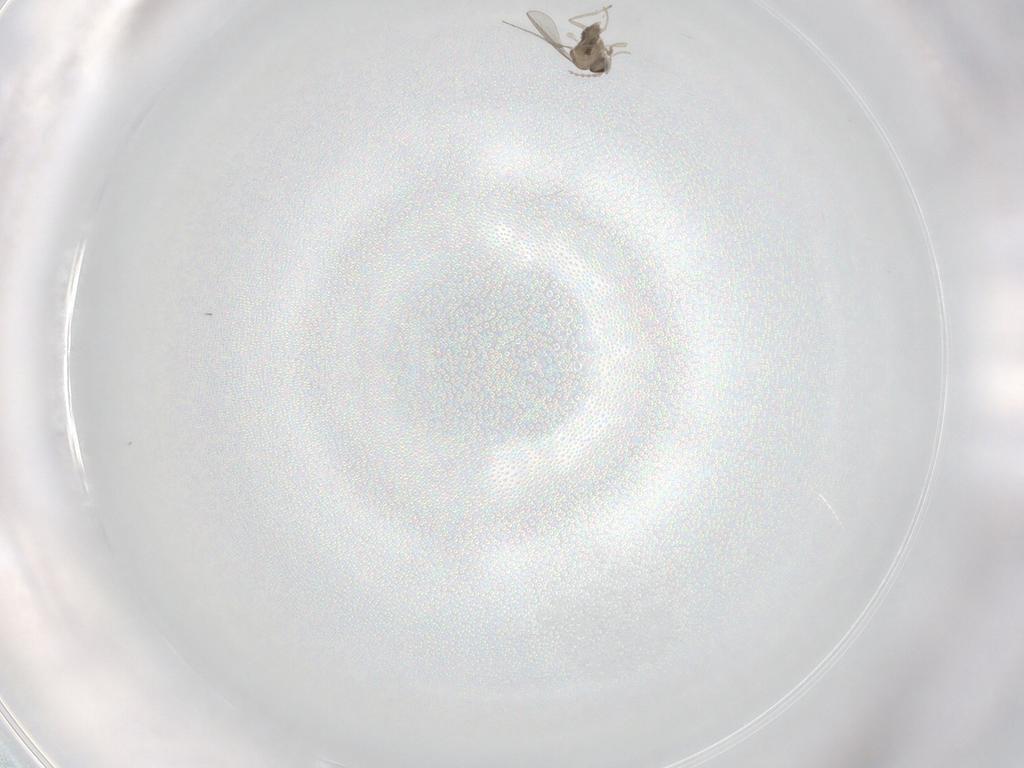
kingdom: Animalia
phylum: Arthropoda
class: Insecta
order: Diptera
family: Cecidomyiidae
